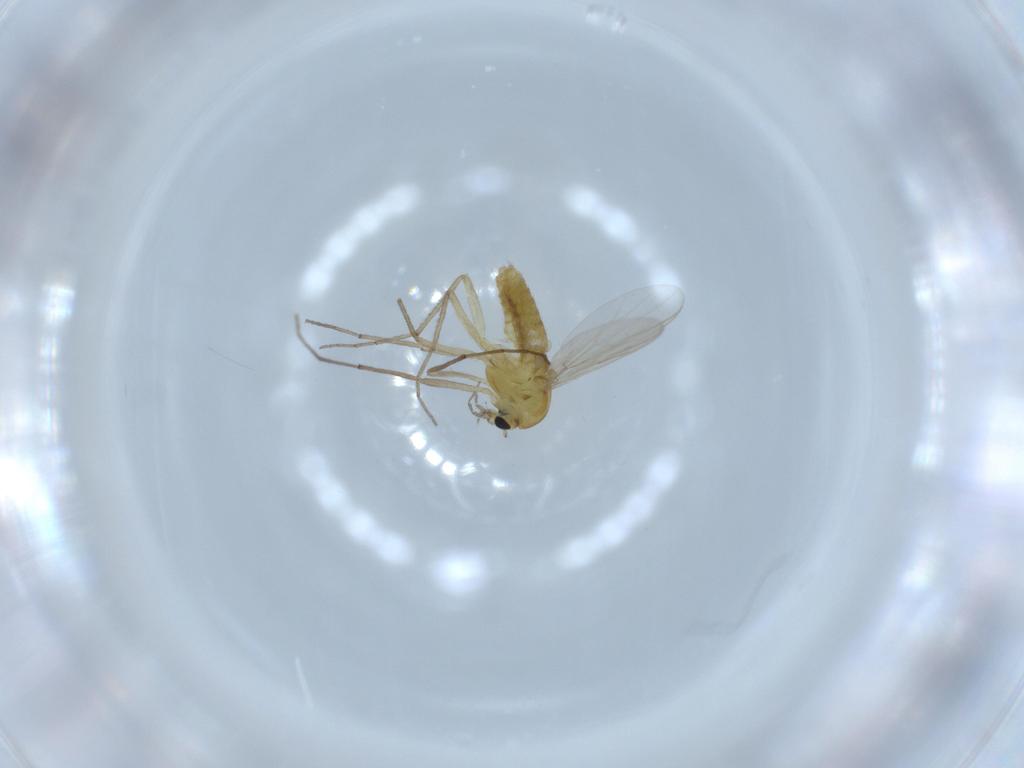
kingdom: Animalia
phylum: Arthropoda
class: Insecta
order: Diptera
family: Chironomidae
